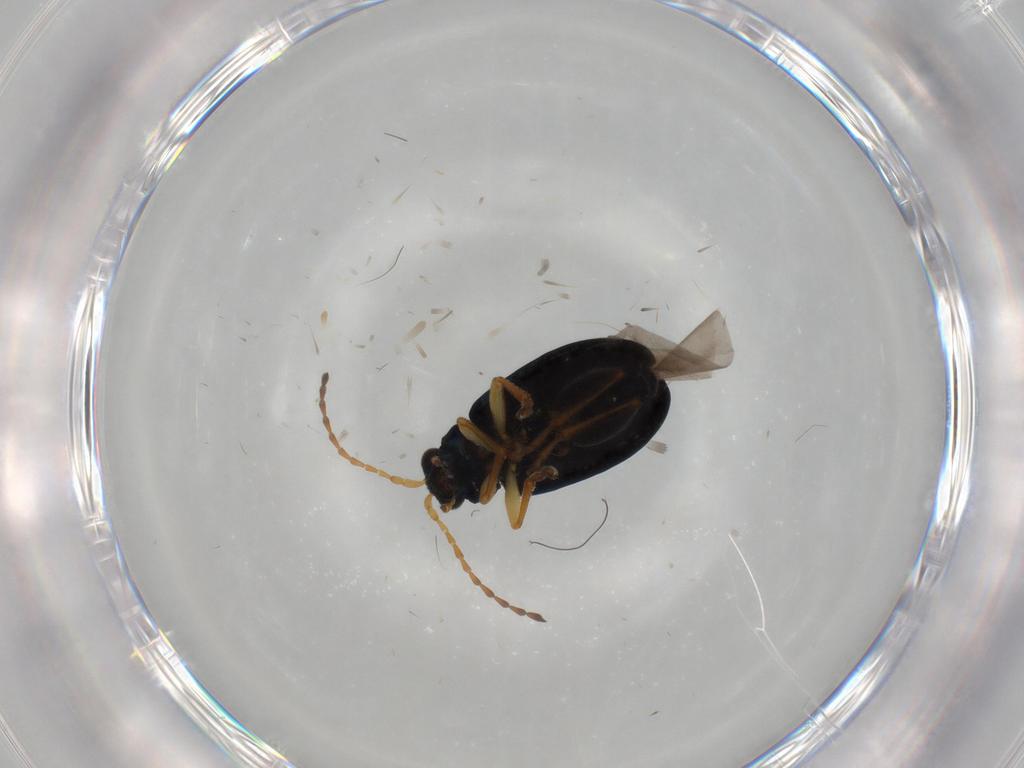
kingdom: Animalia
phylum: Arthropoda
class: Insecta
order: Coleoptera
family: Chrysomelidae
